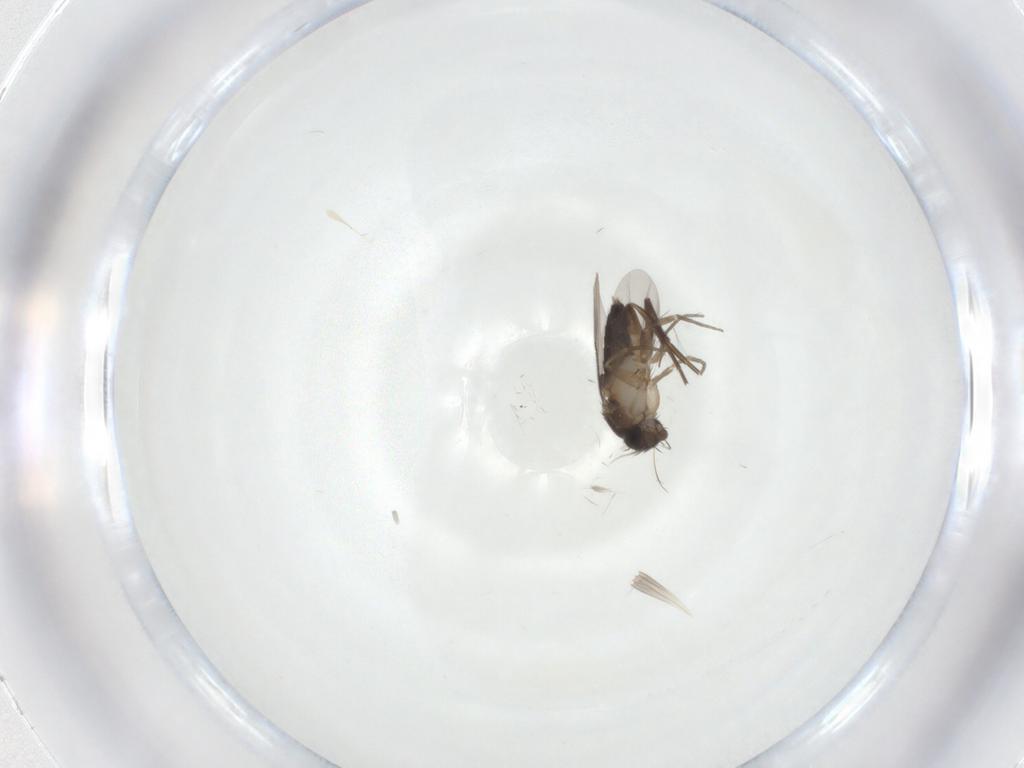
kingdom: Animalia
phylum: Arthropoda
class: Insecta
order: Diptera
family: Phoridae
